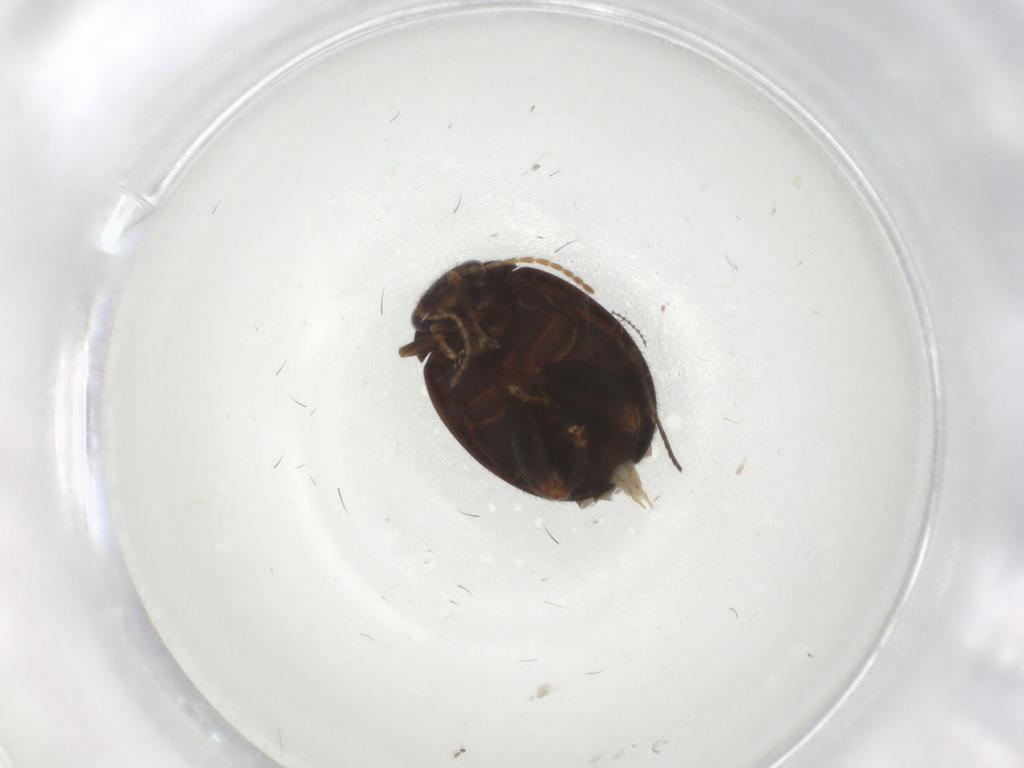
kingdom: Animalia
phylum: Arthropoda
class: Insecta
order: Coleoptera
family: Scirtidae
